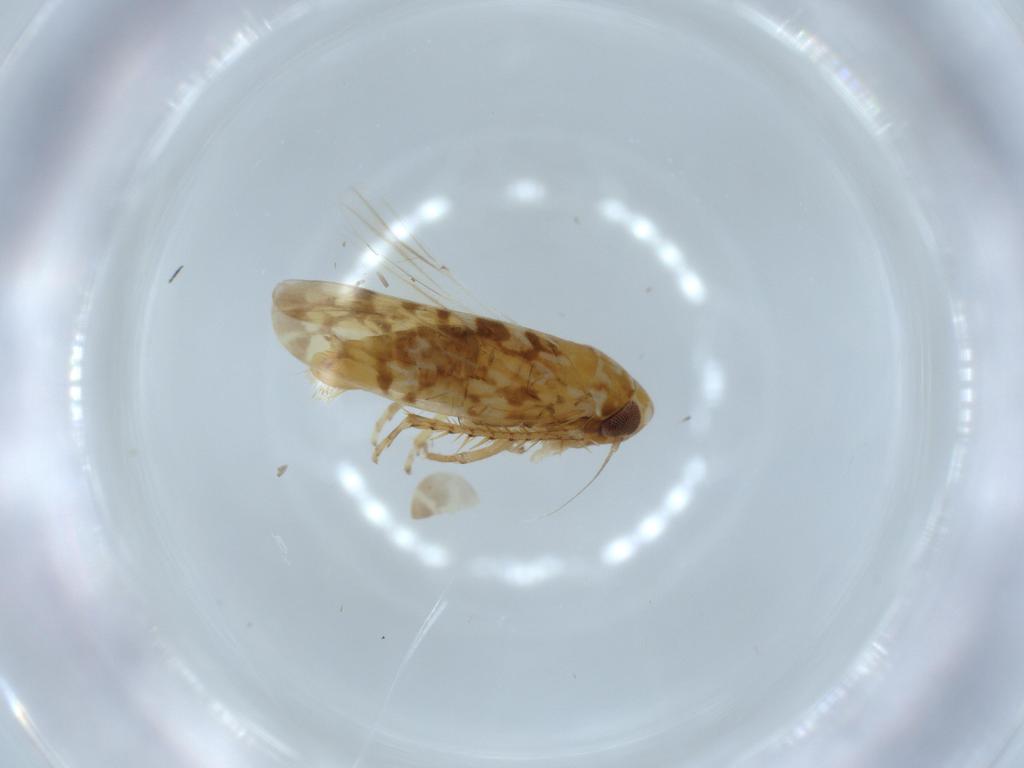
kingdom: Animalia
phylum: Arthropoda
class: Insecta
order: Hemiptera
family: Cicadellidae
